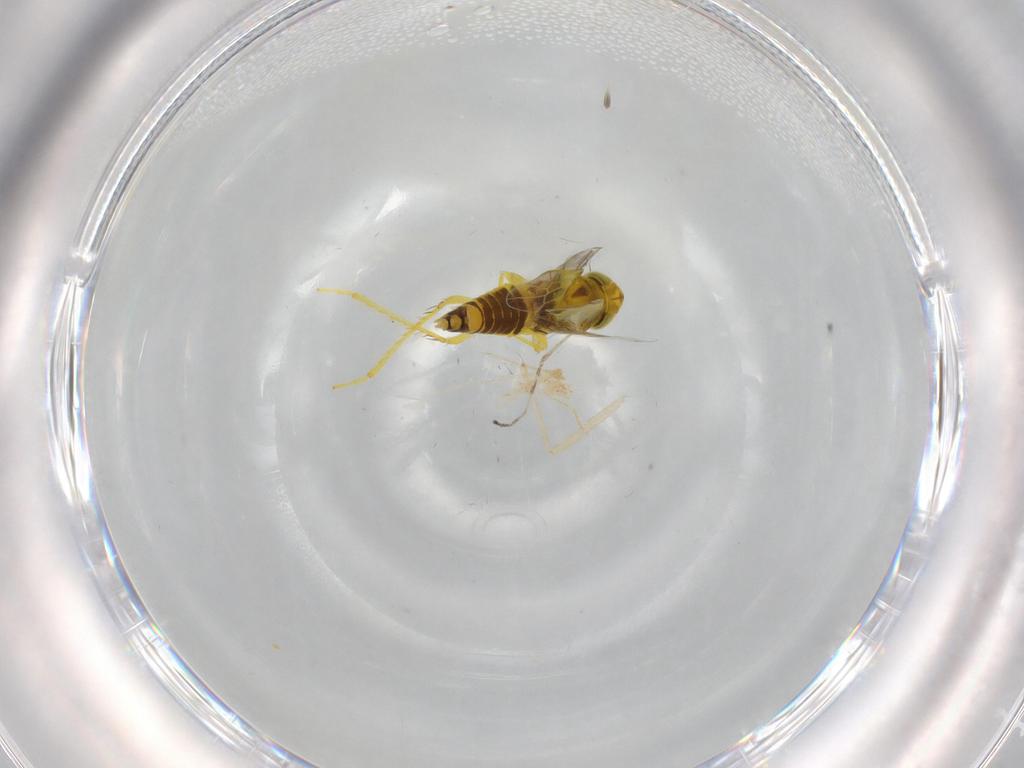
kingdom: Animalia
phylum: Arthropoda
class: Insecta
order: Hemiptera
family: Cicadellidae
